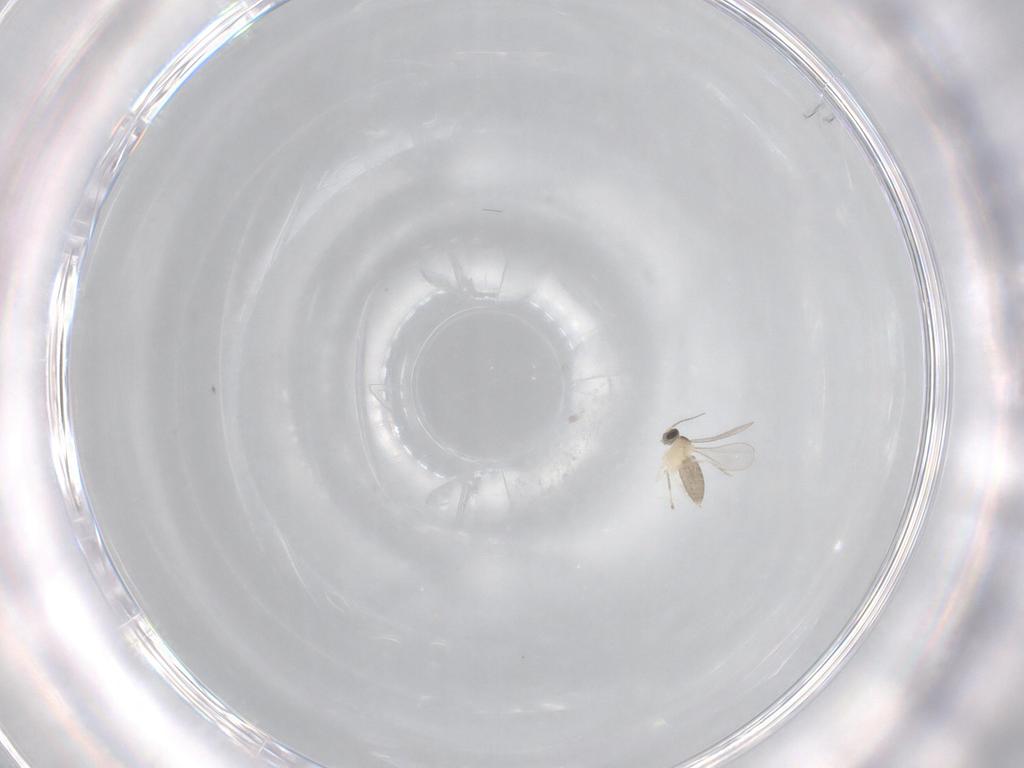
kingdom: Animalia
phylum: Arthropoda
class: Insecta
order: Diptera
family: Cecidomyiidae
